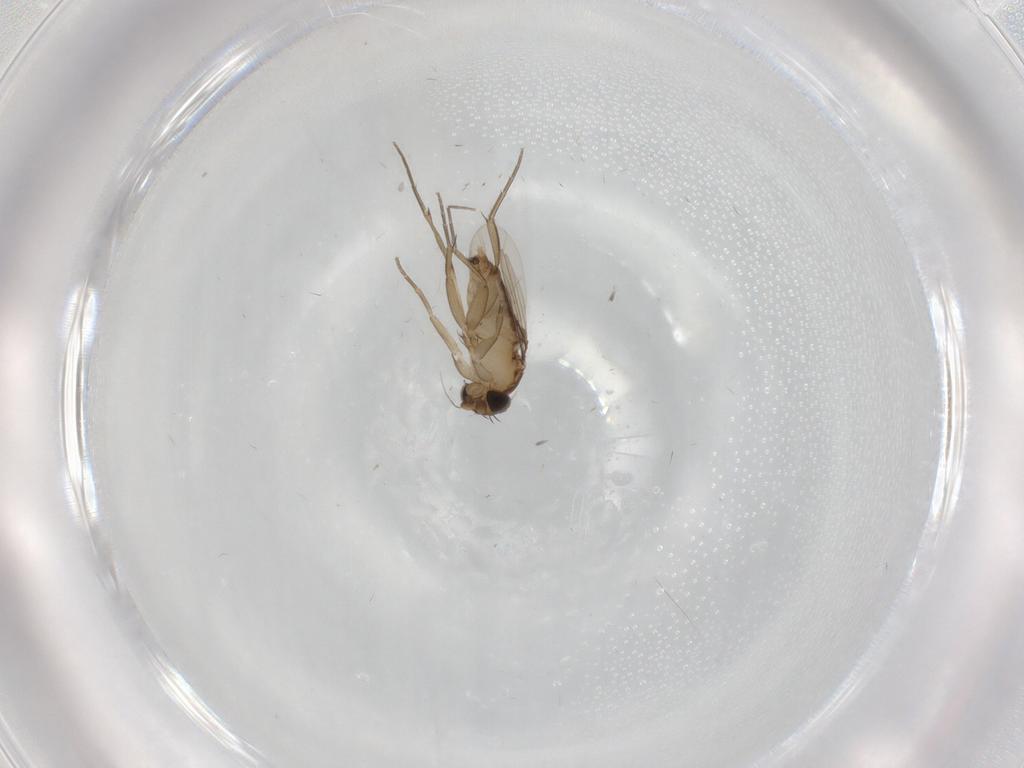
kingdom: Animalia
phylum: Arthropoda
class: Insecta
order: Diptera
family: Phoridae
